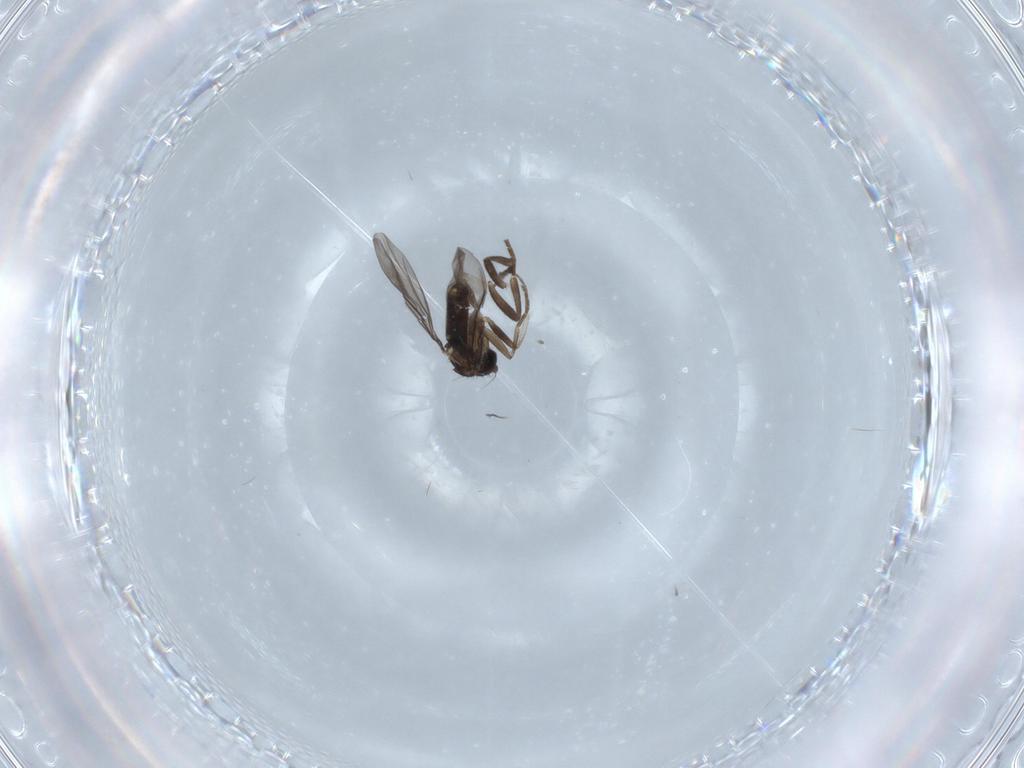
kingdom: Animalia
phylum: Arthropoda
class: Insecta
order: Diptera
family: Phoridae
